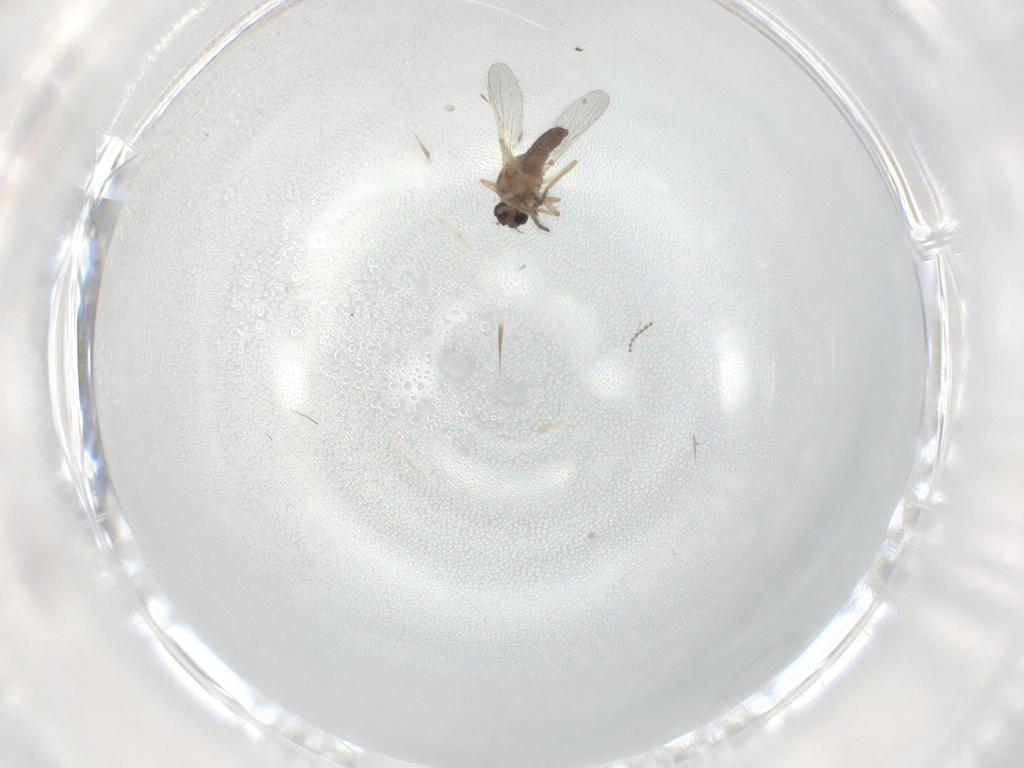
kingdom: Animalia
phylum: Arthropoda
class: Insecta
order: Diptera
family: Ceratopogonidae
